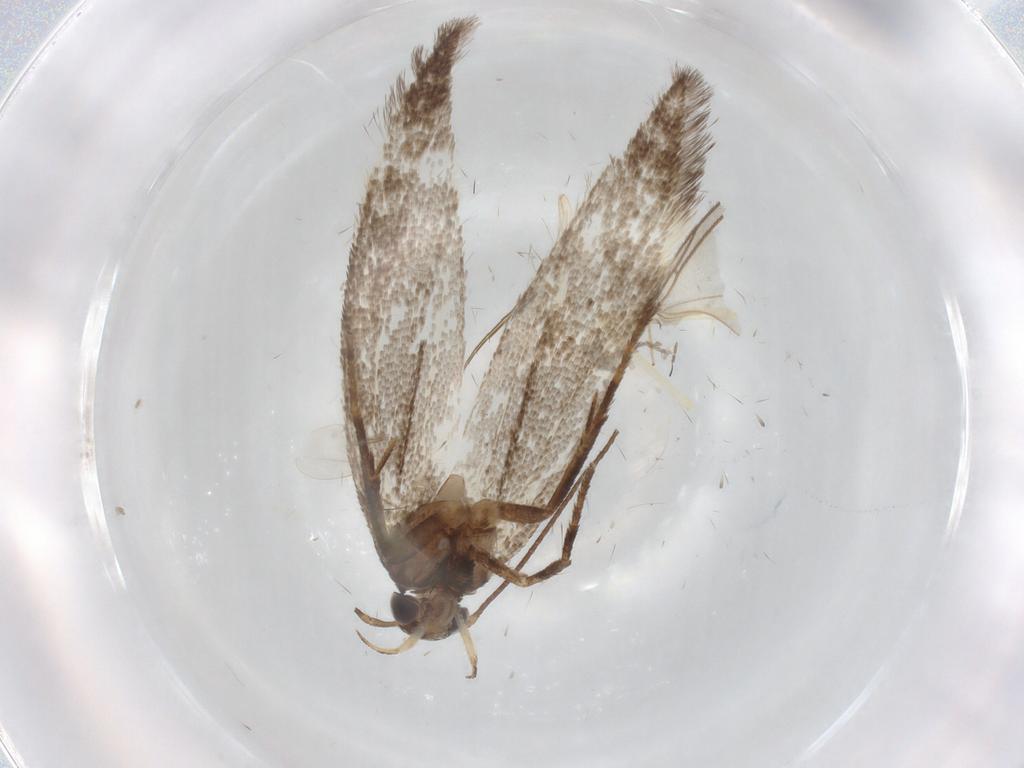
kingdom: Animalia
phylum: Arthropoda
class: Insecta
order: Lepidoptera
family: Gelechiidae
